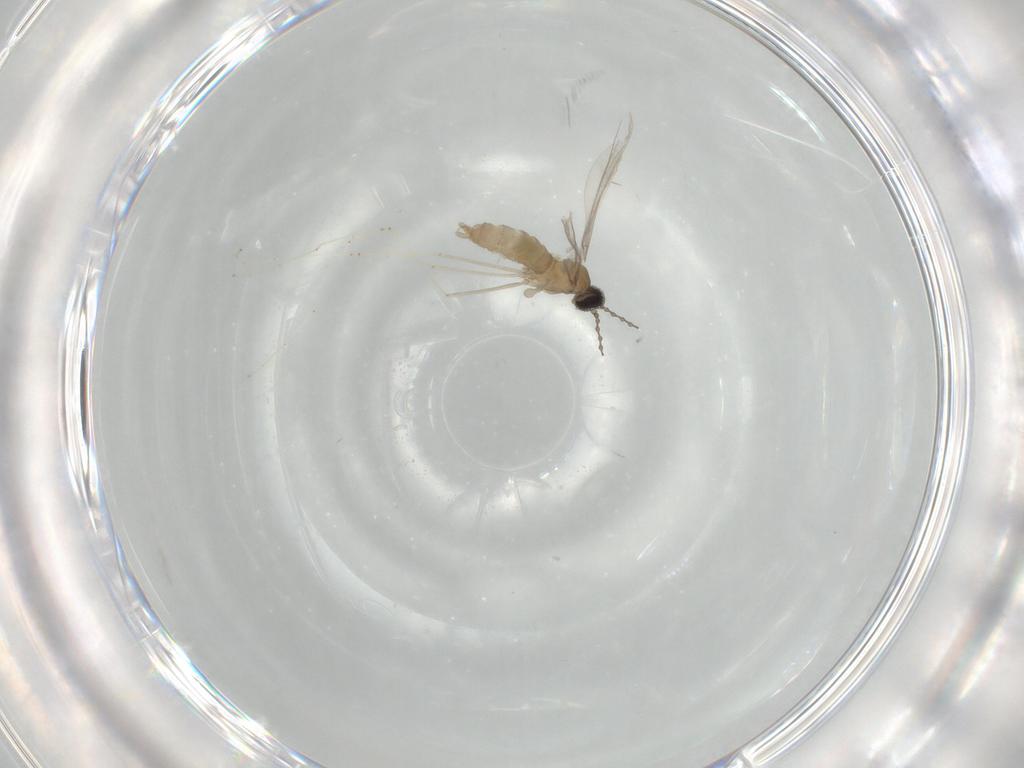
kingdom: Animalia
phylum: Arthropoda
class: Insecta
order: Diptera
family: Cecidomyiidae
